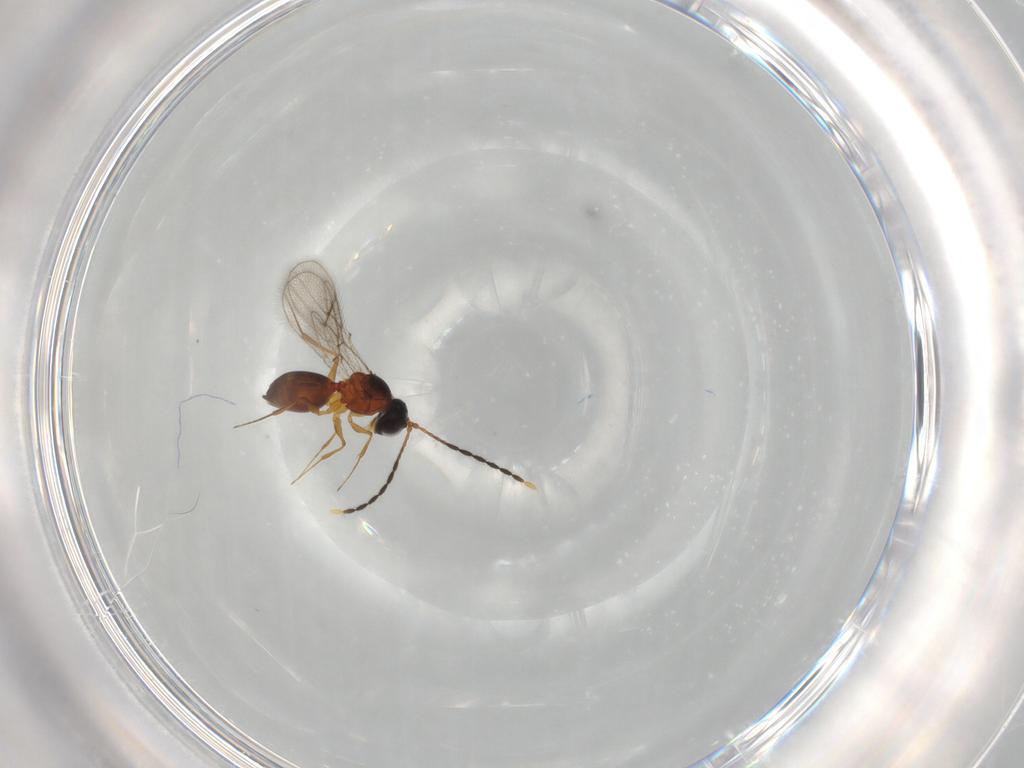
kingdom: Animalia
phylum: Arthropoda
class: Insecta
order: Hymenoptera
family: Figitidae
